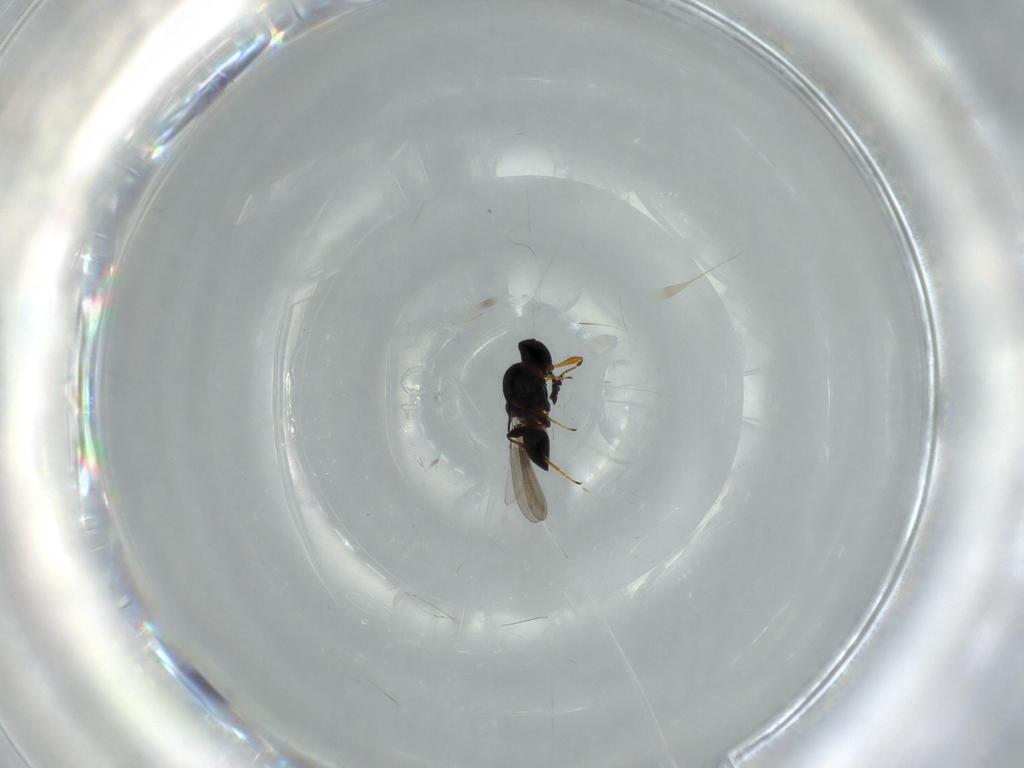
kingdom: Animalia
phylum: Arthropoda
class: Insecta
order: Hymenoptera
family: Platygastridae
